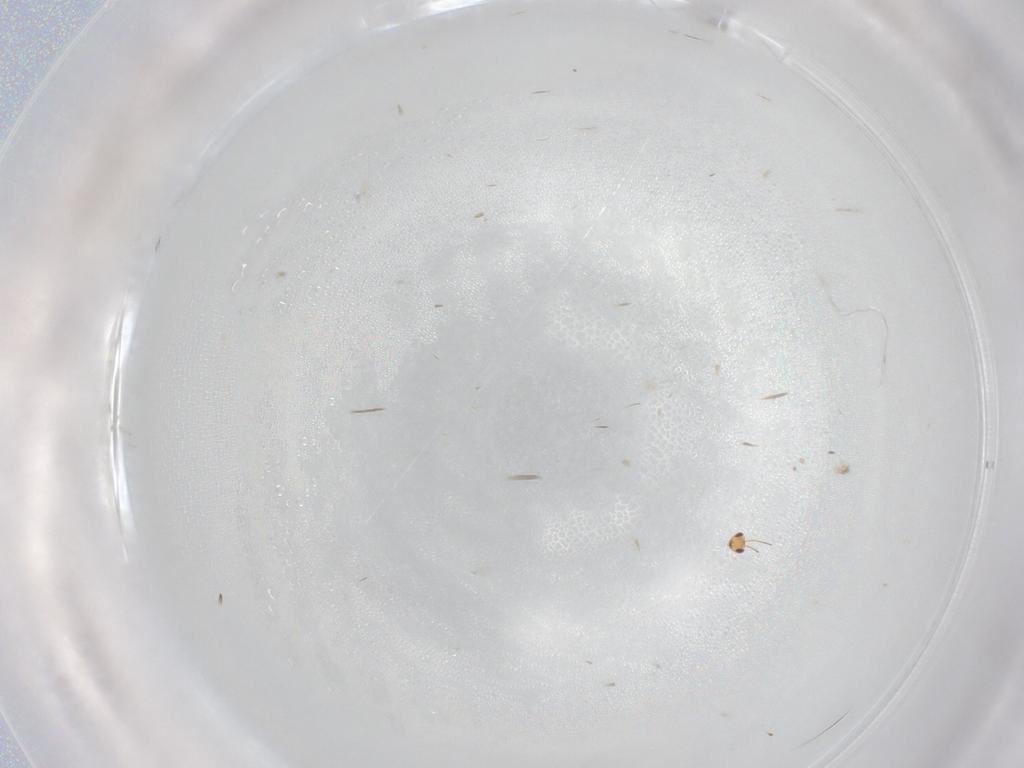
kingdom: Animalia
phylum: Arthropoda
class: Insecta
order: Hymenoptera
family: Mymaridae
